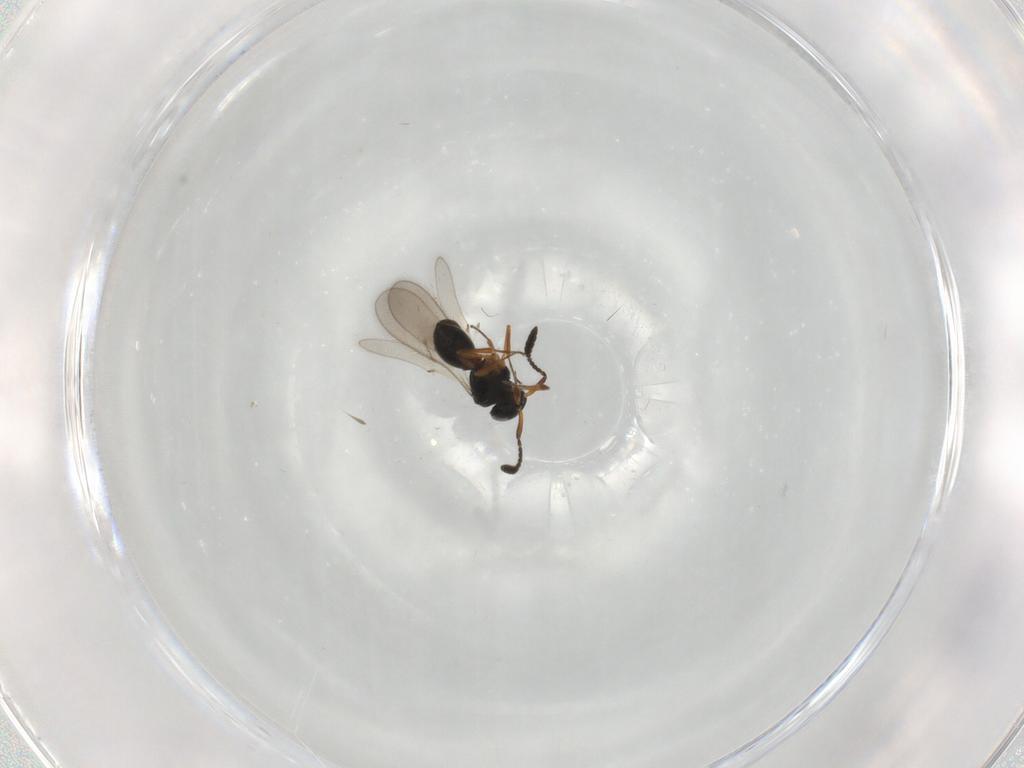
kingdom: Animalia
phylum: Arthropoda
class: Insecta
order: Hymenoptera
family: Scelionidae
